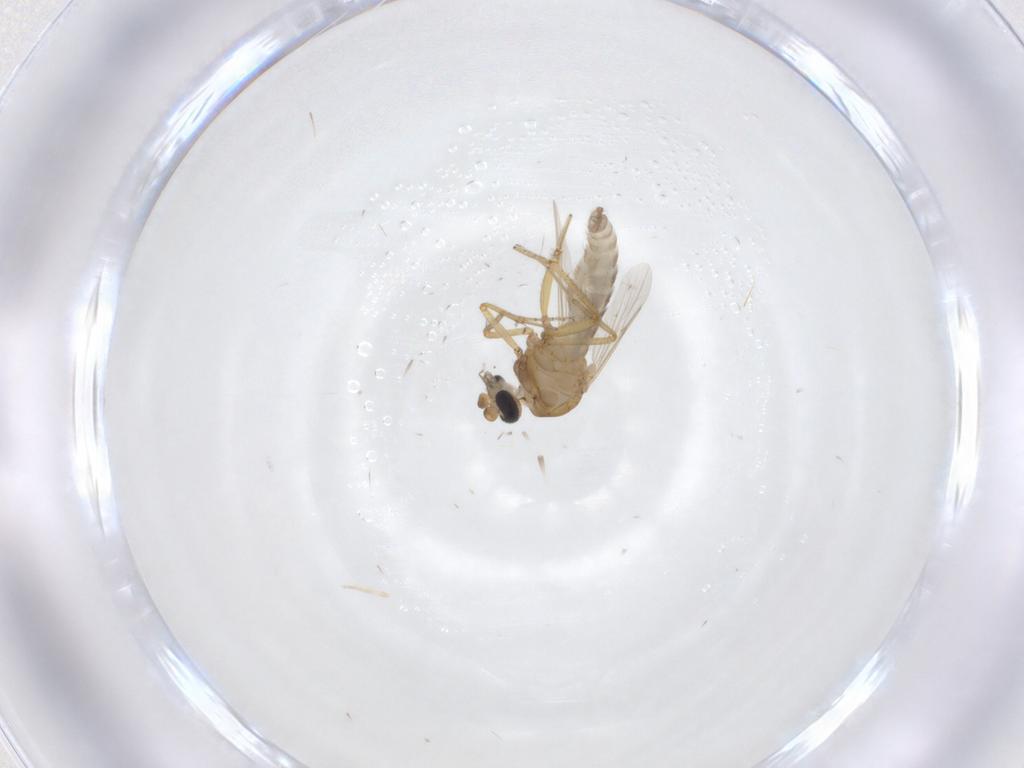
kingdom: Animalia
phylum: Arthropoda
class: Insecta
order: Diptera
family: Ceratopogonidae
